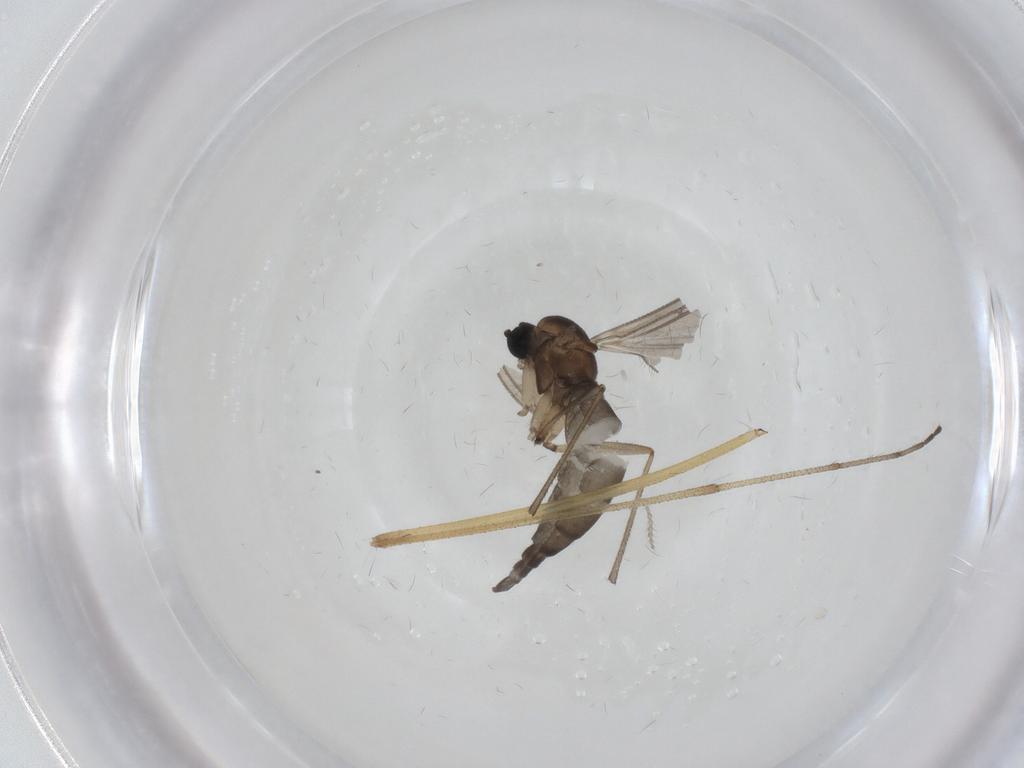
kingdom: Animalia
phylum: Arthropoda
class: Insecta
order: Diptera
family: Sciaridae
